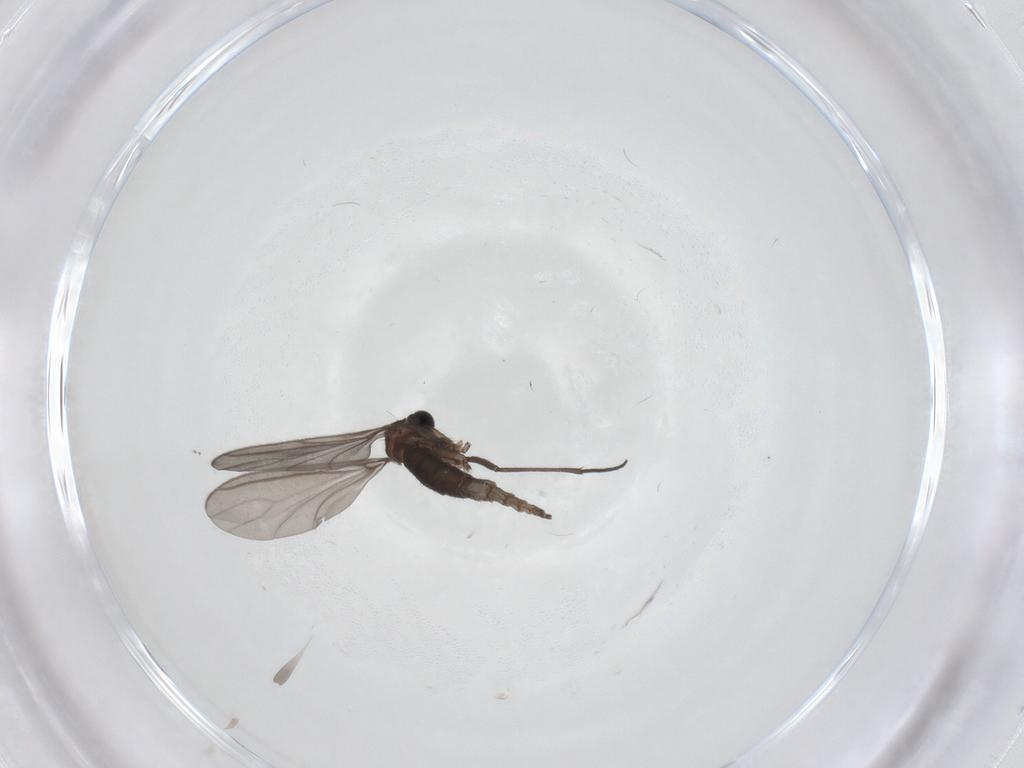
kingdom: Animalia
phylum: Arthropoda
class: Insecta
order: Diptera
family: Sciaridae
